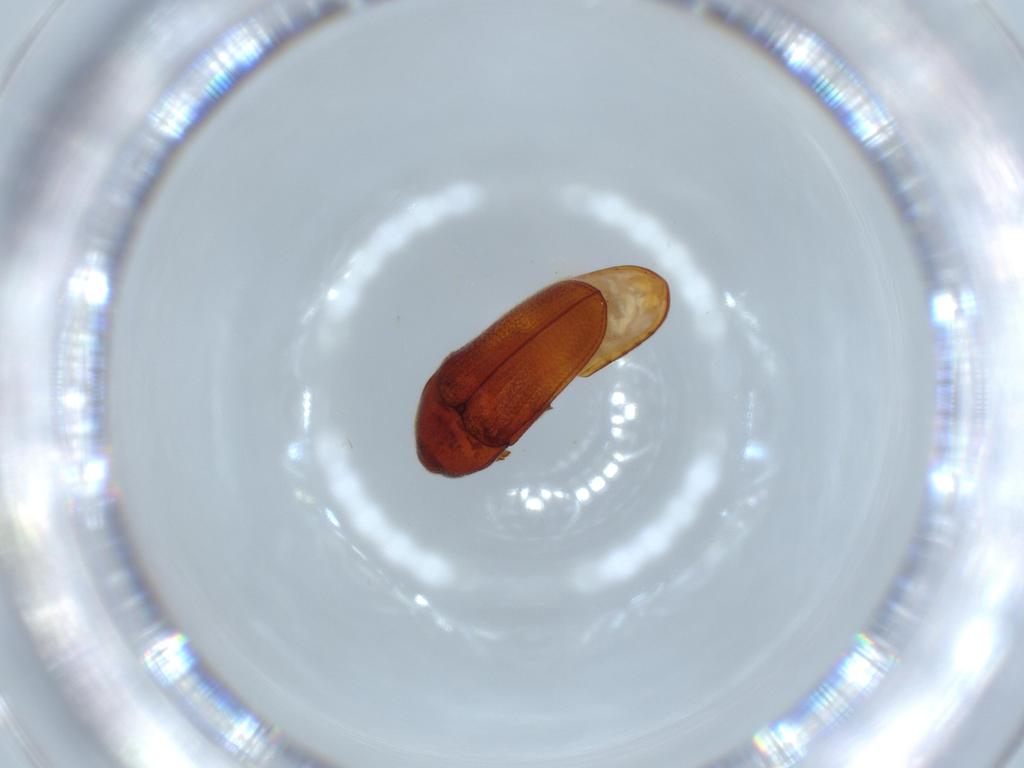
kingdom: Animalia
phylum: Arthropoda
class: Insecta
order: Coleoptera
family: Throscidae
